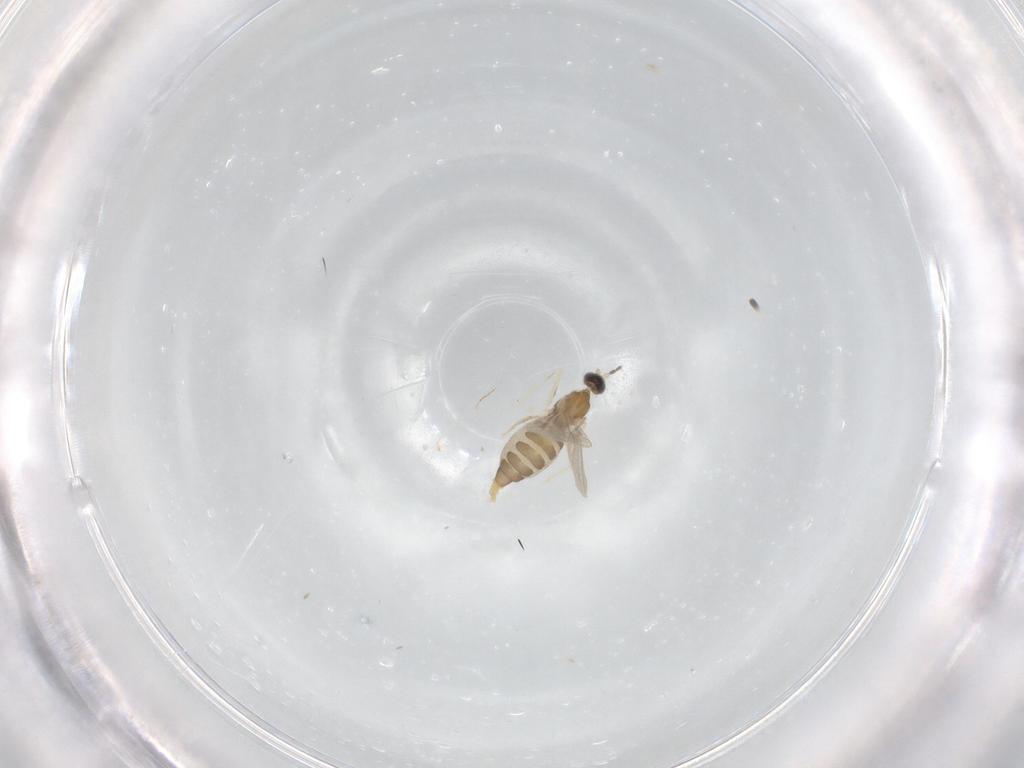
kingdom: Animalia
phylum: Arthropoda
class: Insecta
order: Diptera
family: Cecidomyiidae
